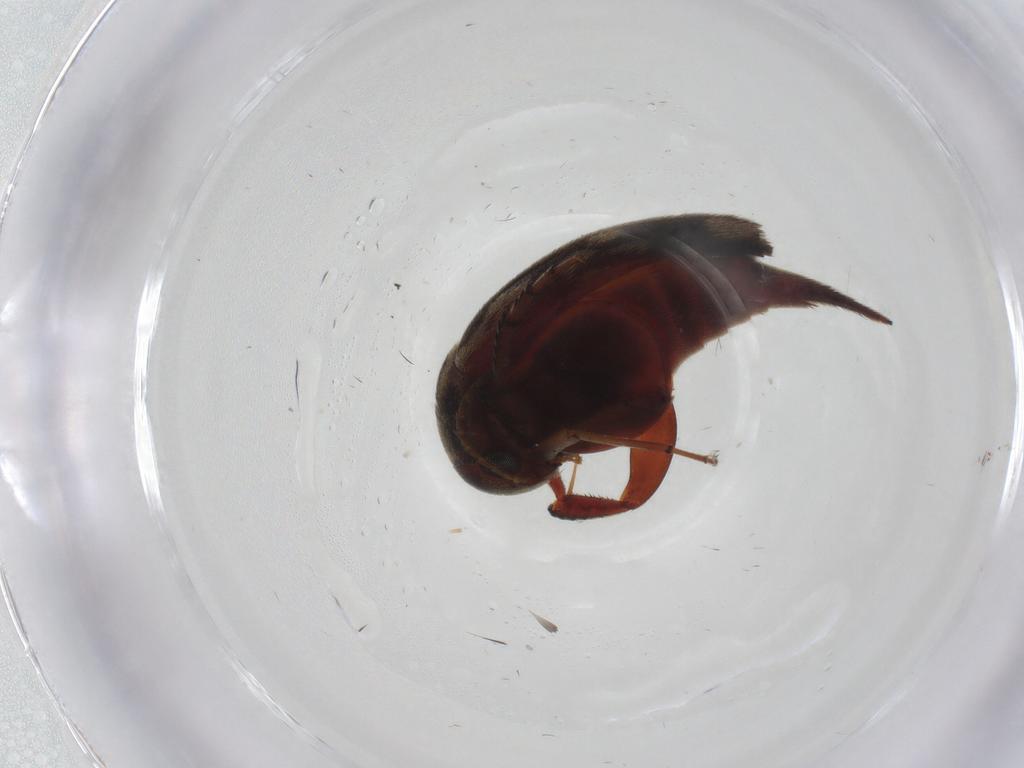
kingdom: Animalia
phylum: Arthropoda
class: Insecta
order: Coleoptera
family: Mordellidae
